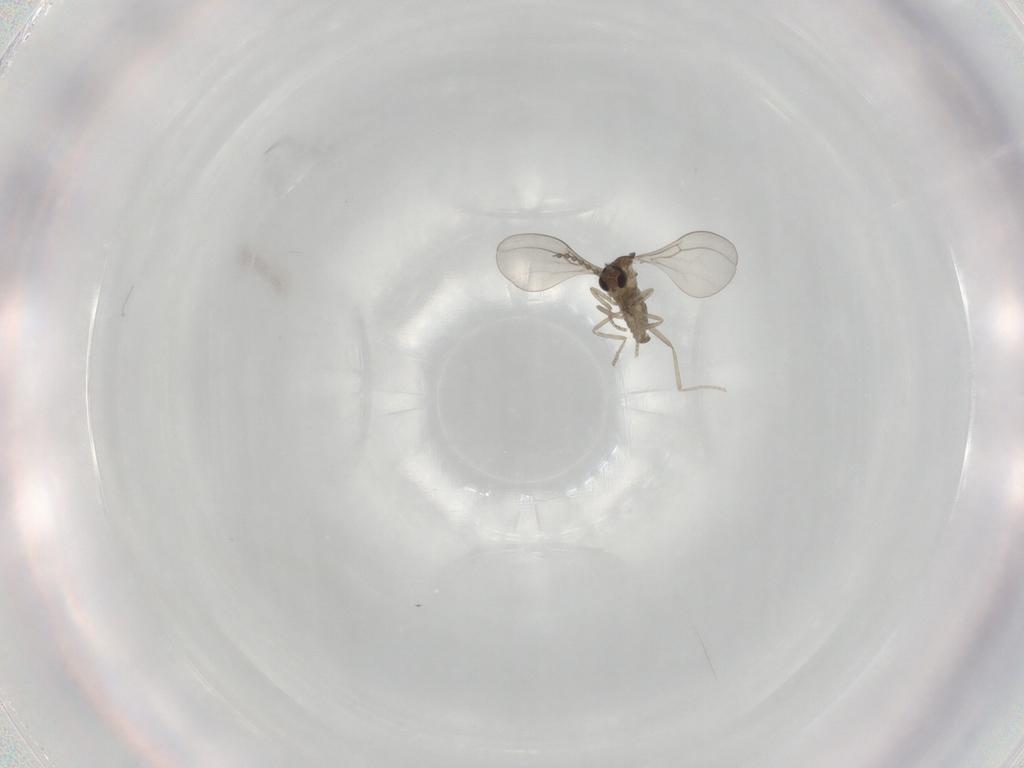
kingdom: Animalia
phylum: Arthropoda
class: Insecta
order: Diptera
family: Cecidomyiidae
